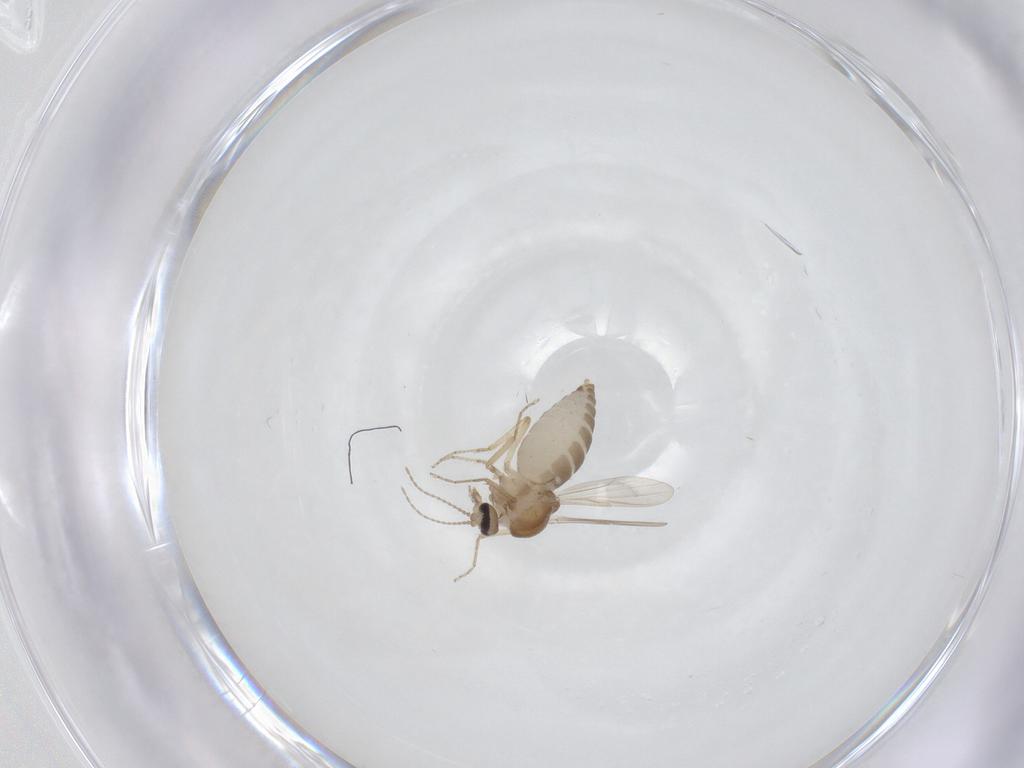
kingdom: Animalia
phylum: Arthropoda
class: Insecta
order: Diptera
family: Ceratopogonidae
